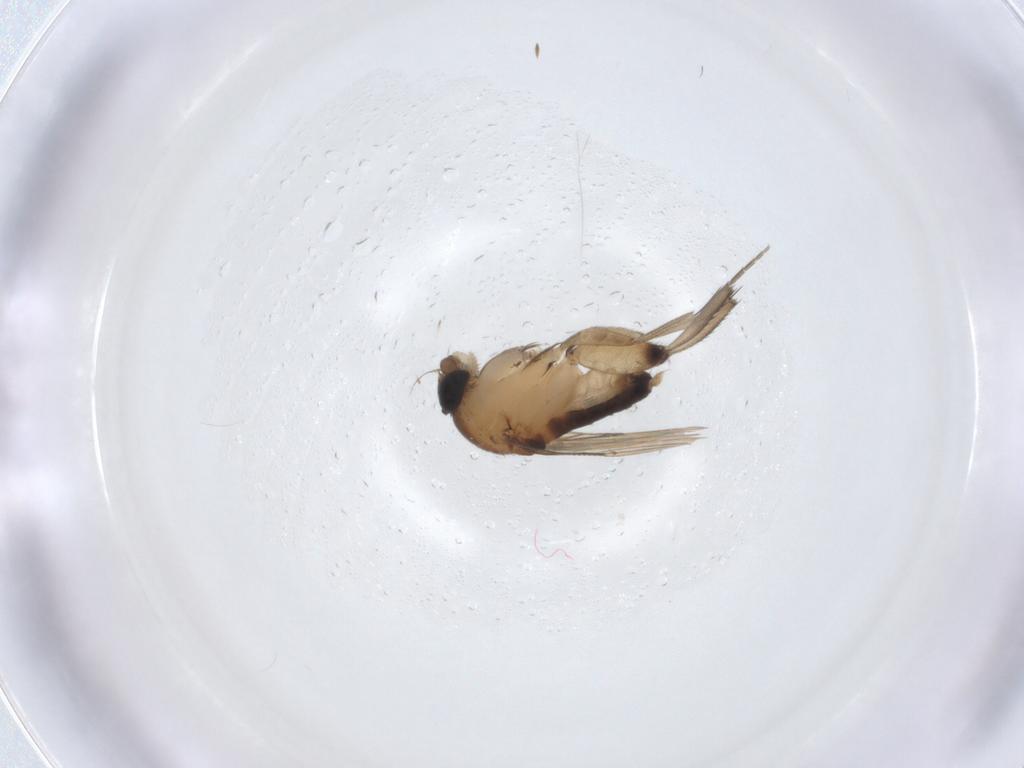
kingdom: Animalia
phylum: Arthropoda
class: Insecta
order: Diptera
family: Phoridae
